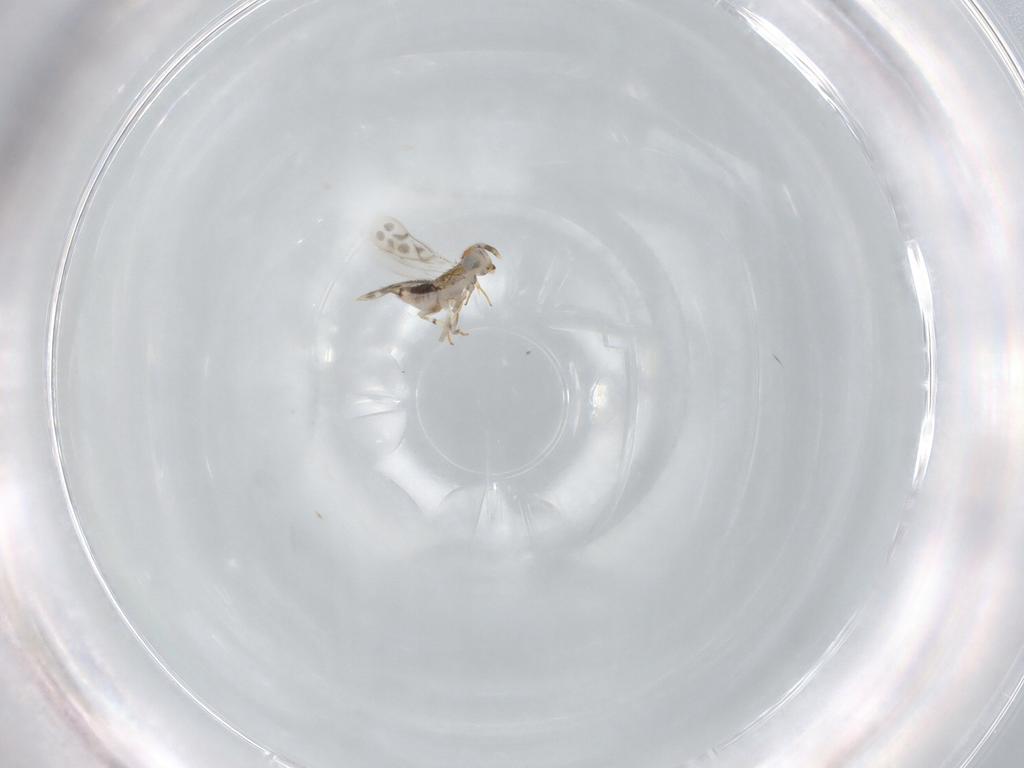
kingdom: Animalia
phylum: Arthropoda
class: Insecta
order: Hymenoptera
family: Aphelinidae
